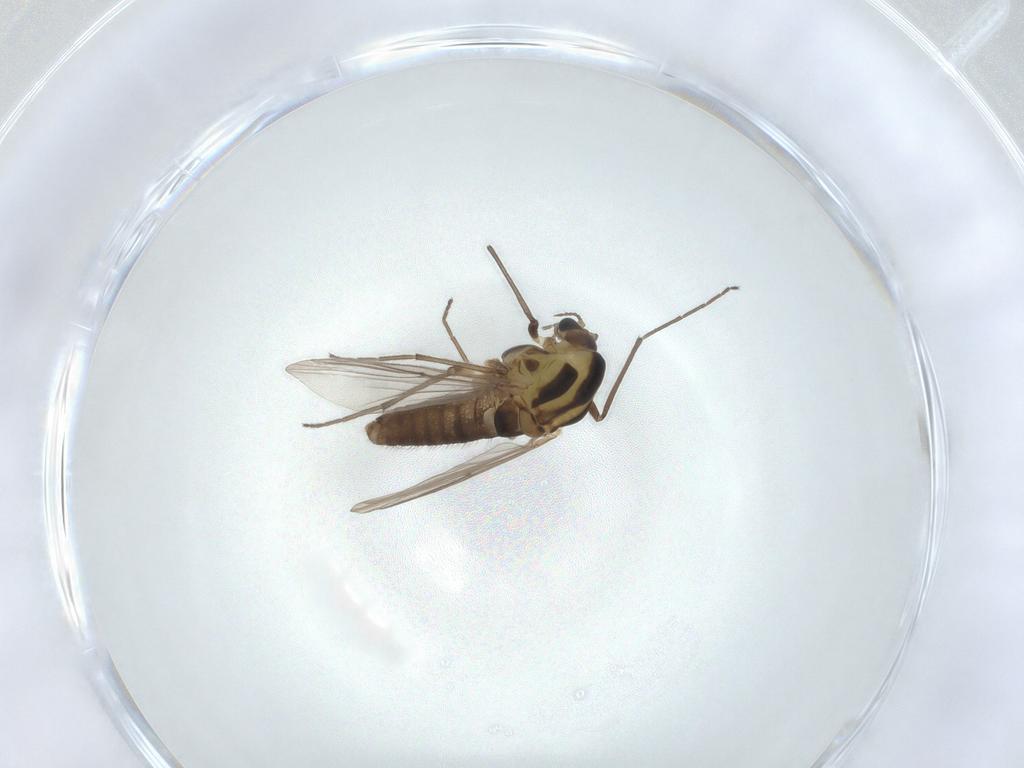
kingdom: Animalia
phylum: Arthropoda
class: Insecta
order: Diptera
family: Chironomidae
